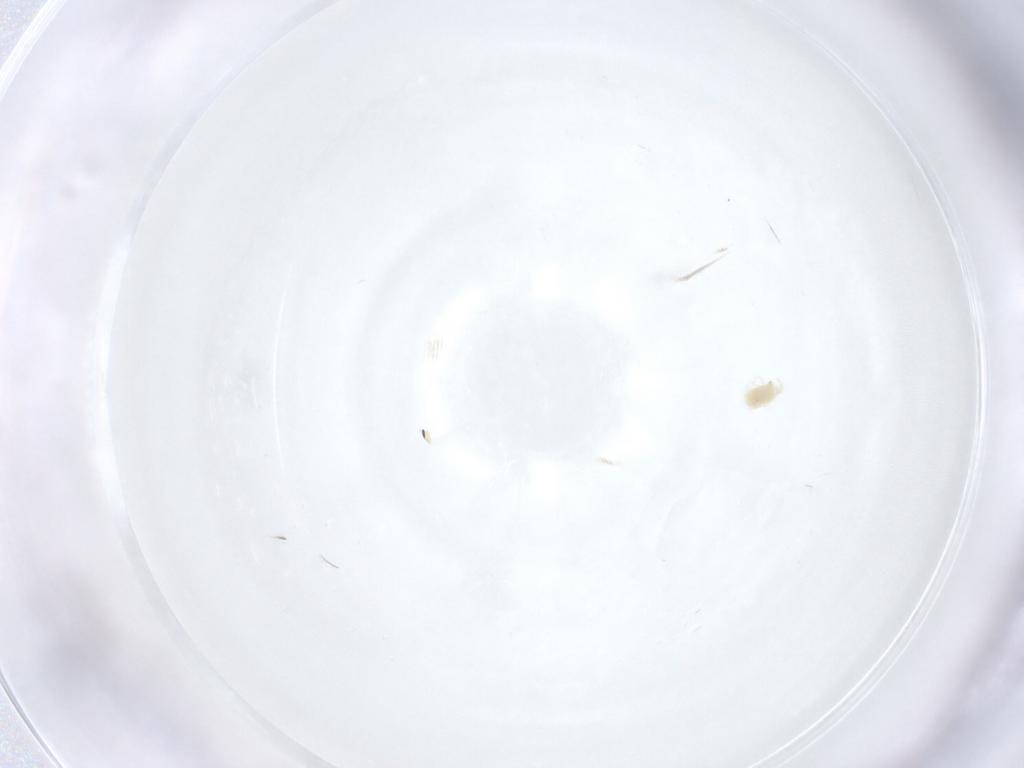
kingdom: Animalia
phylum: Arthropoda
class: Arachnida
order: Trombidiformes
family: Tetranychidae
